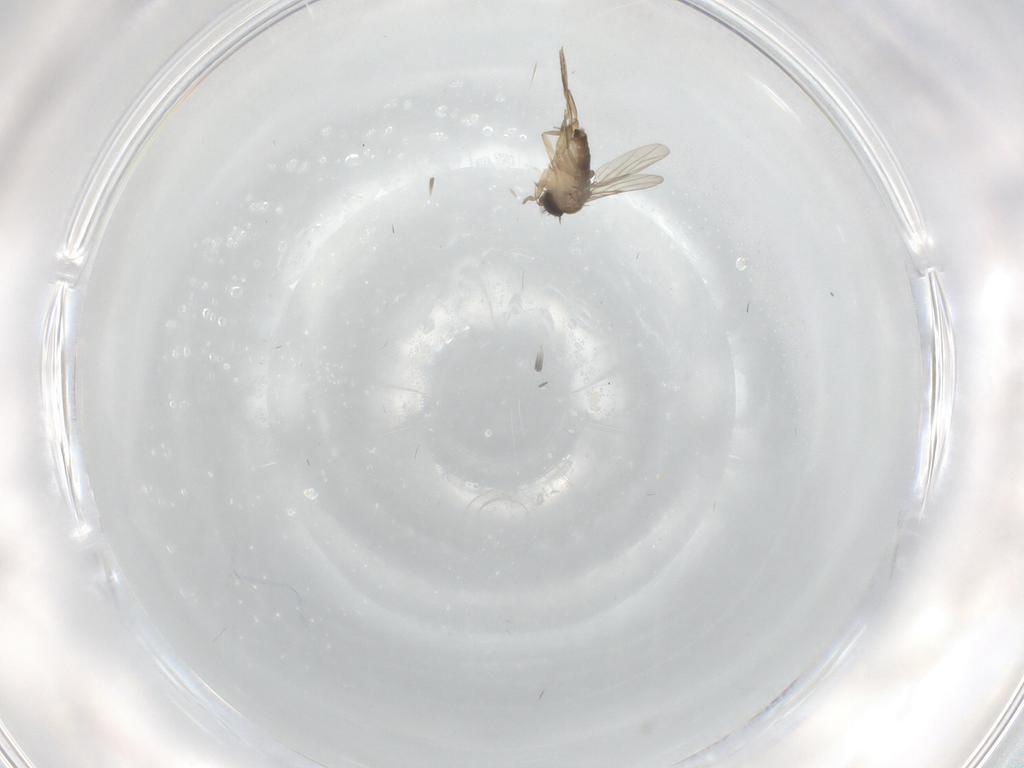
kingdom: Animalia
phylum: Arthropoda
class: Insecta
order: Diptera
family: Phoridae
